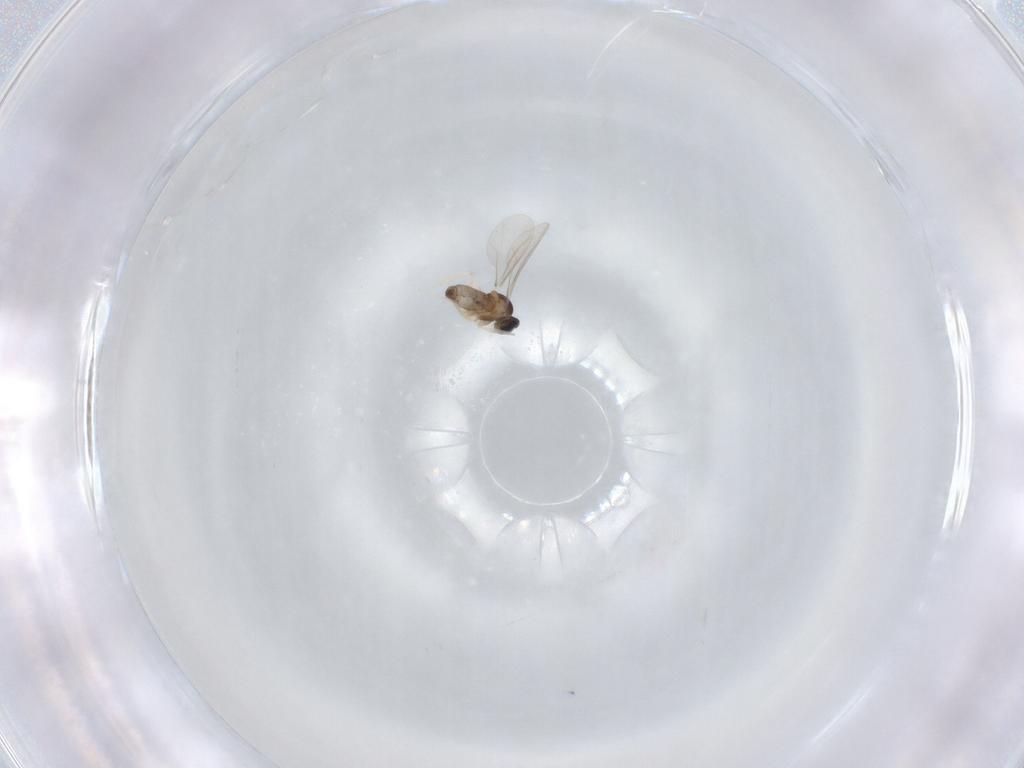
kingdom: Animalia
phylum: Arthropoda
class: Insecta
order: Diptera
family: Cecidomyiidae
